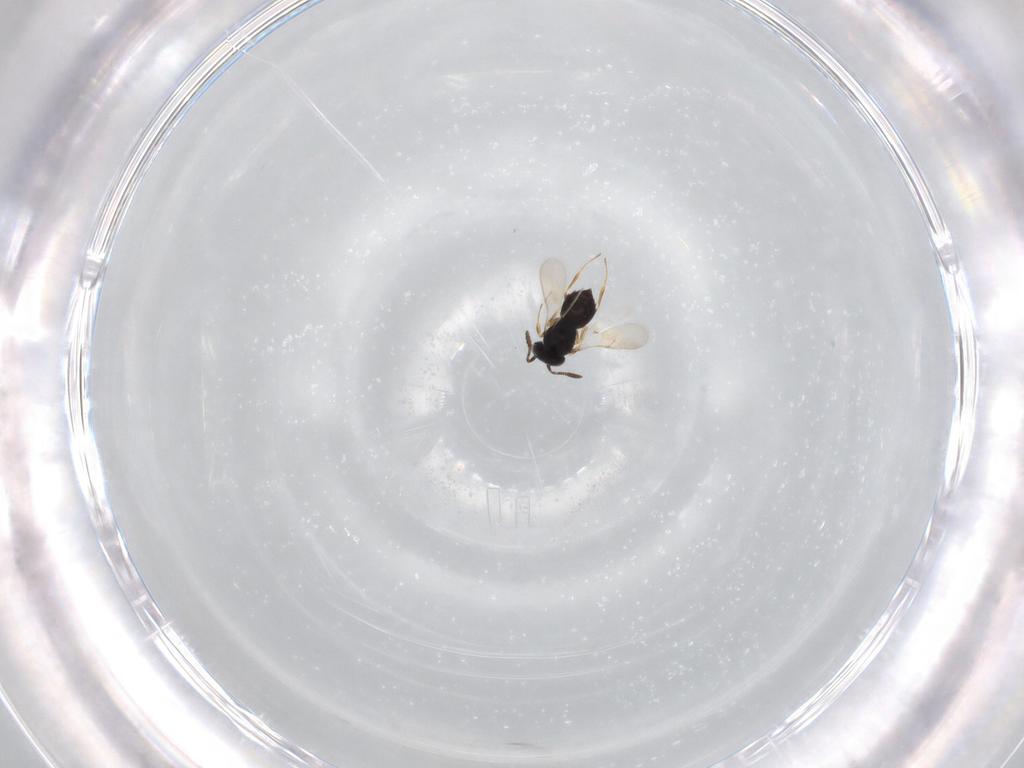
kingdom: Animalia
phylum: Arthropoda
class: Insecta
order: Hymenoptera
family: Scelionidae
